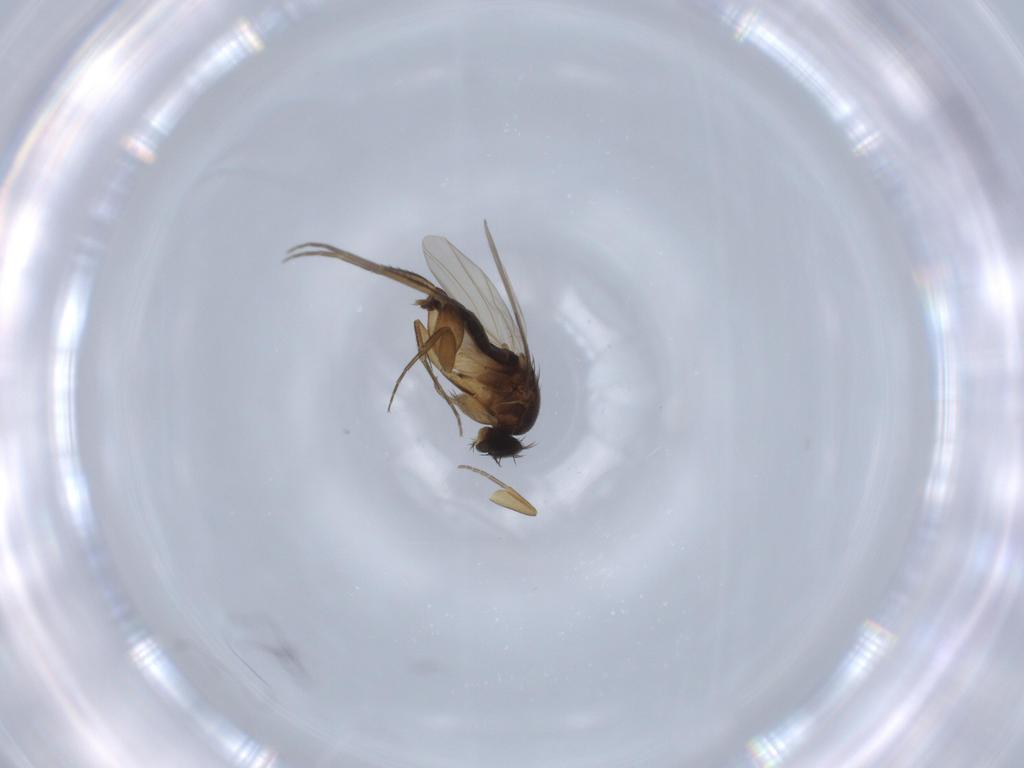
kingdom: Animalia
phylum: Arthropoda
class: Insecta
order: Diptera
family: Phoridae
